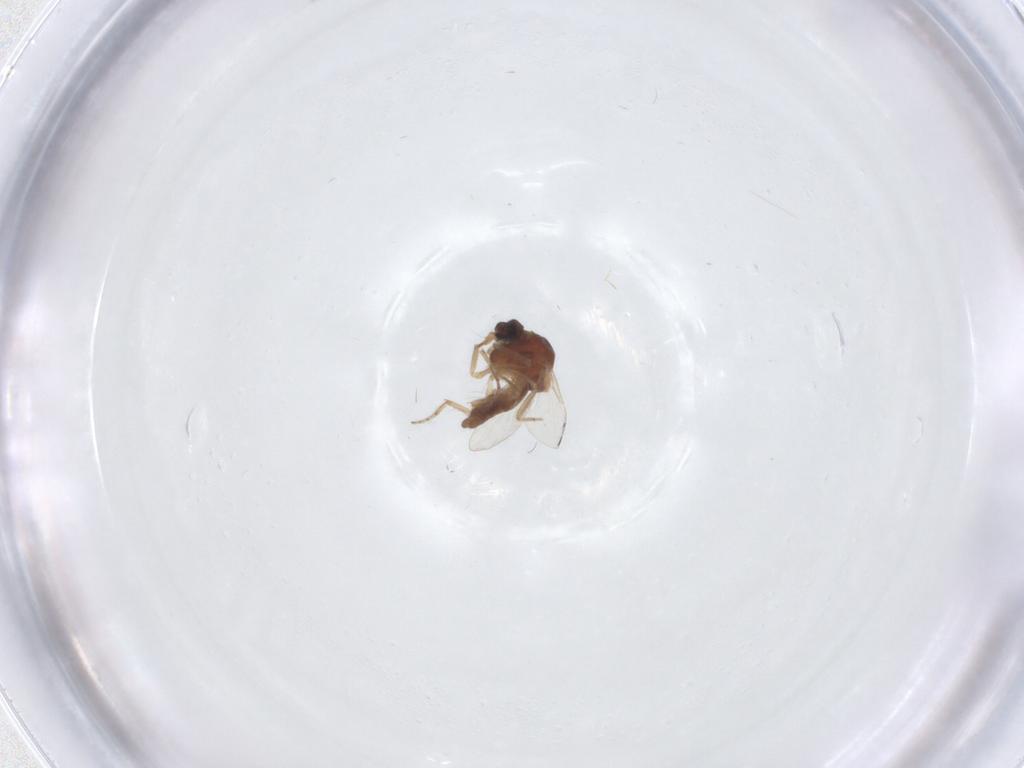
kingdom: Animalia
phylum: Arthropoda
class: Insecta
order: Diptera
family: Ceratopogonidae
